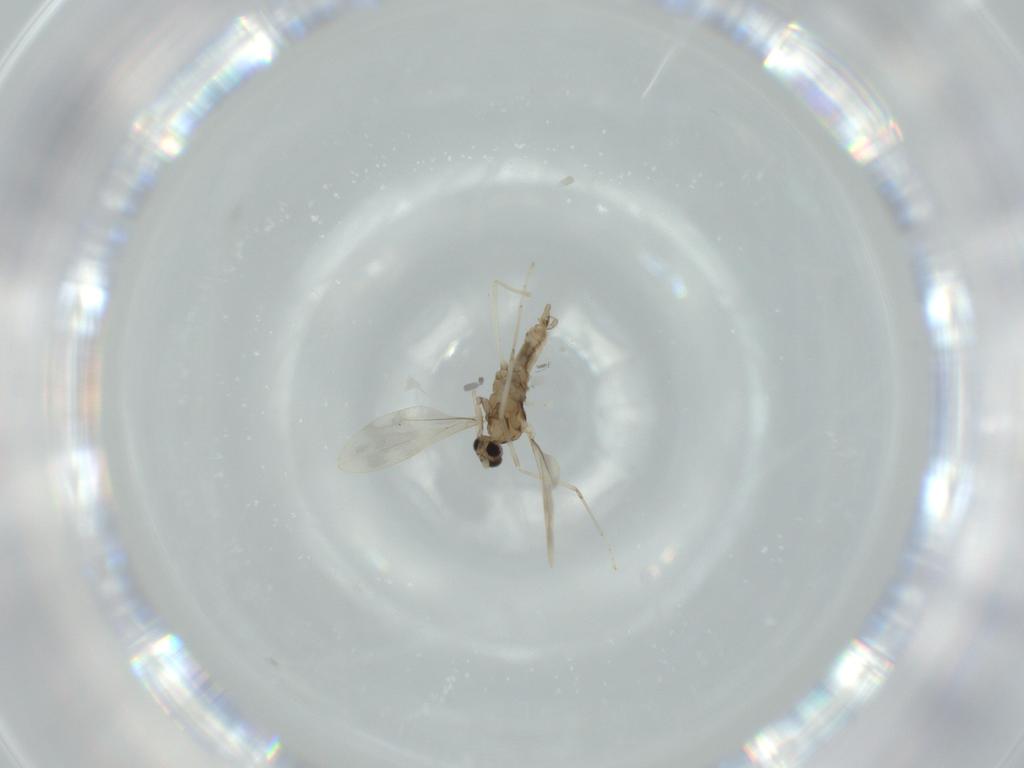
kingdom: Animalia
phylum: Arthropoda
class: Insecta
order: Diptera
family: Cecidomyiidae
